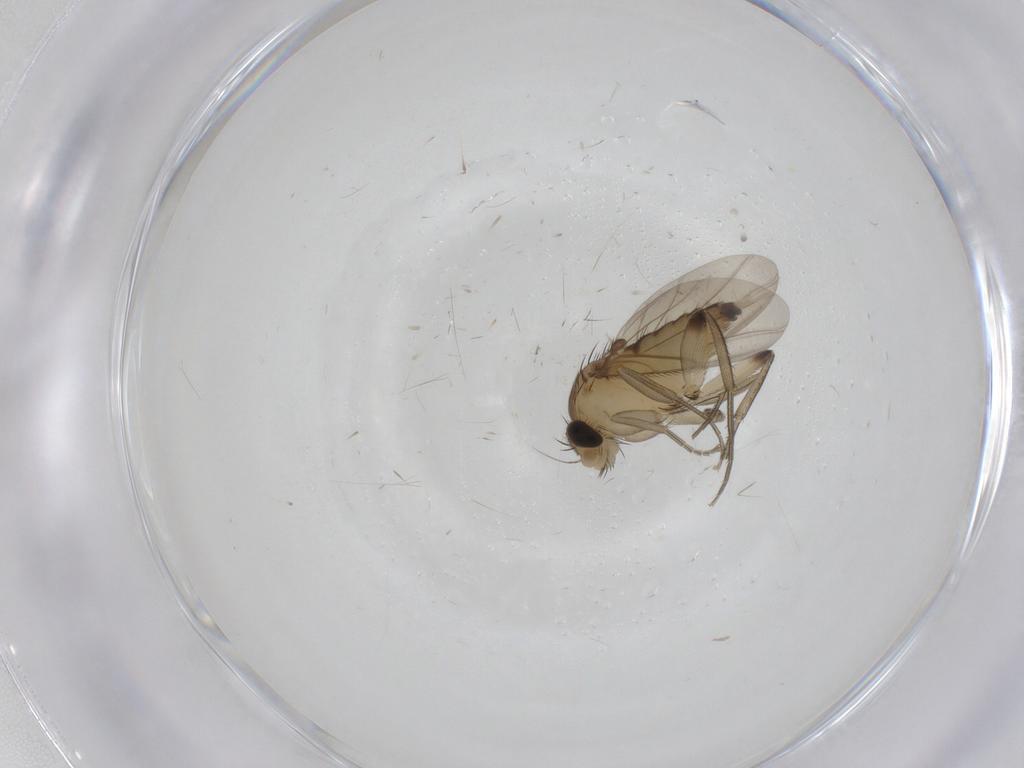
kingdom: Animalia
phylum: Arthropoda
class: Insecta
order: Diptera
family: Phoridae
